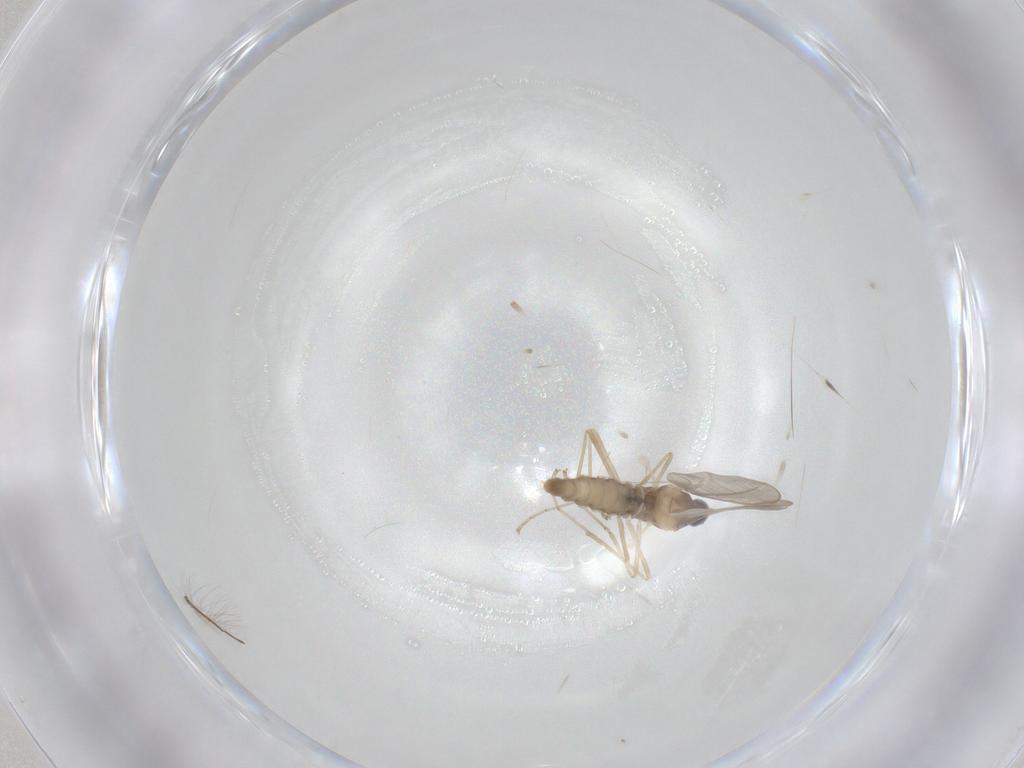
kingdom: Animalia
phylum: Arthropoda
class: Insecta
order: Diptera
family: Cecidomyiidae
